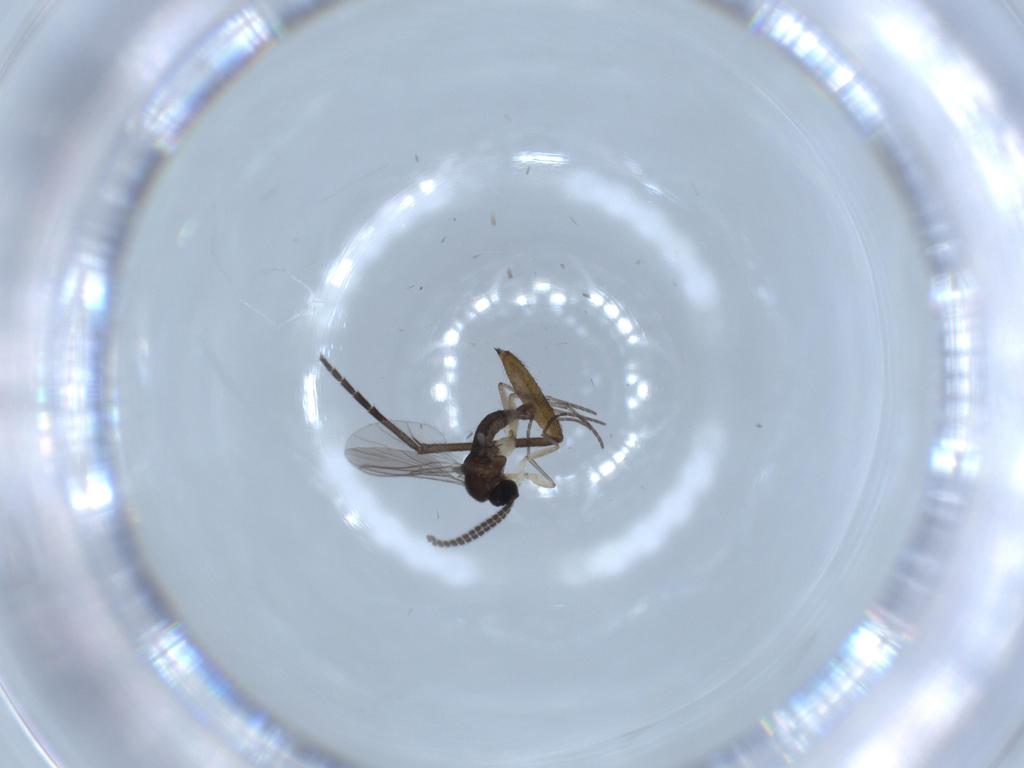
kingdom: Animalia
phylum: Arthropoda
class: Insecta
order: Diptera
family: Sciaridae
